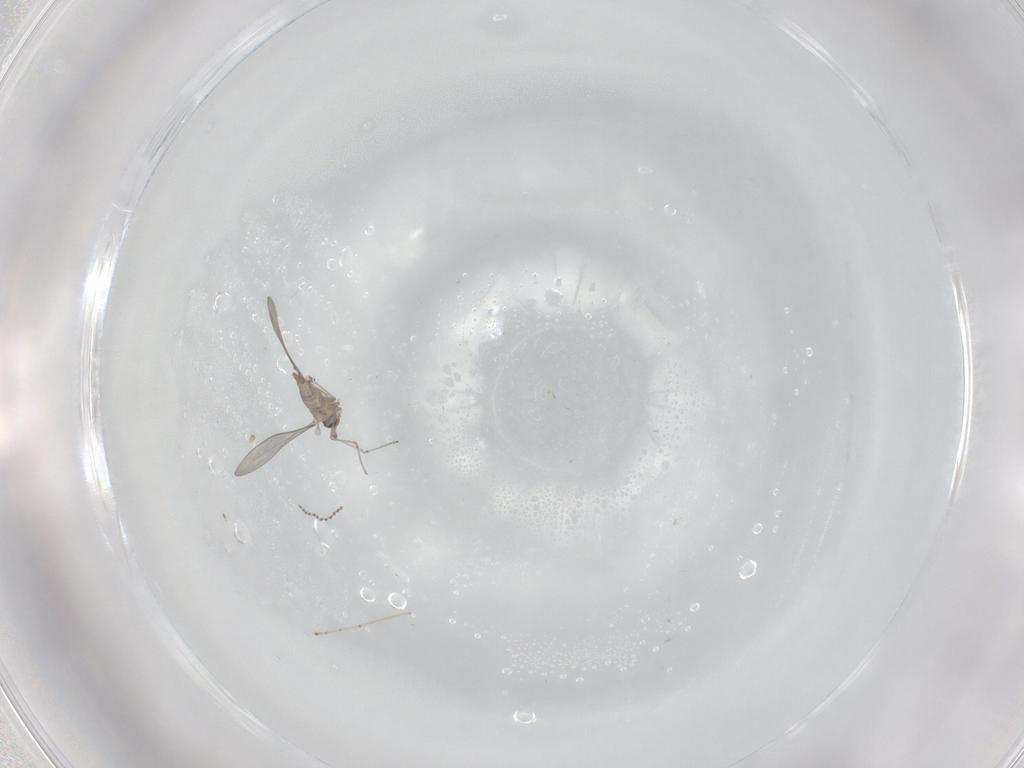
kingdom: Animalia
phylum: Arthropoda
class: Insecta
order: Diptera
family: Cecidomyiidae
